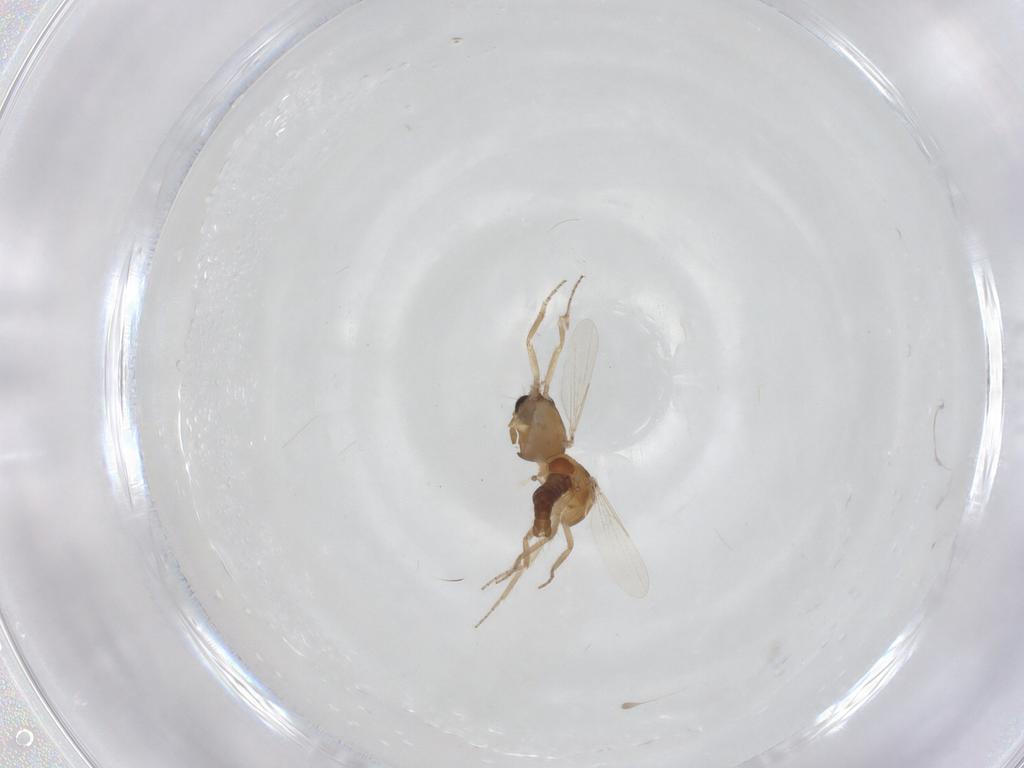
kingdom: Animalia
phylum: Arthropoda
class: Insecta
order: Diptera
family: Ceratopogonidae
